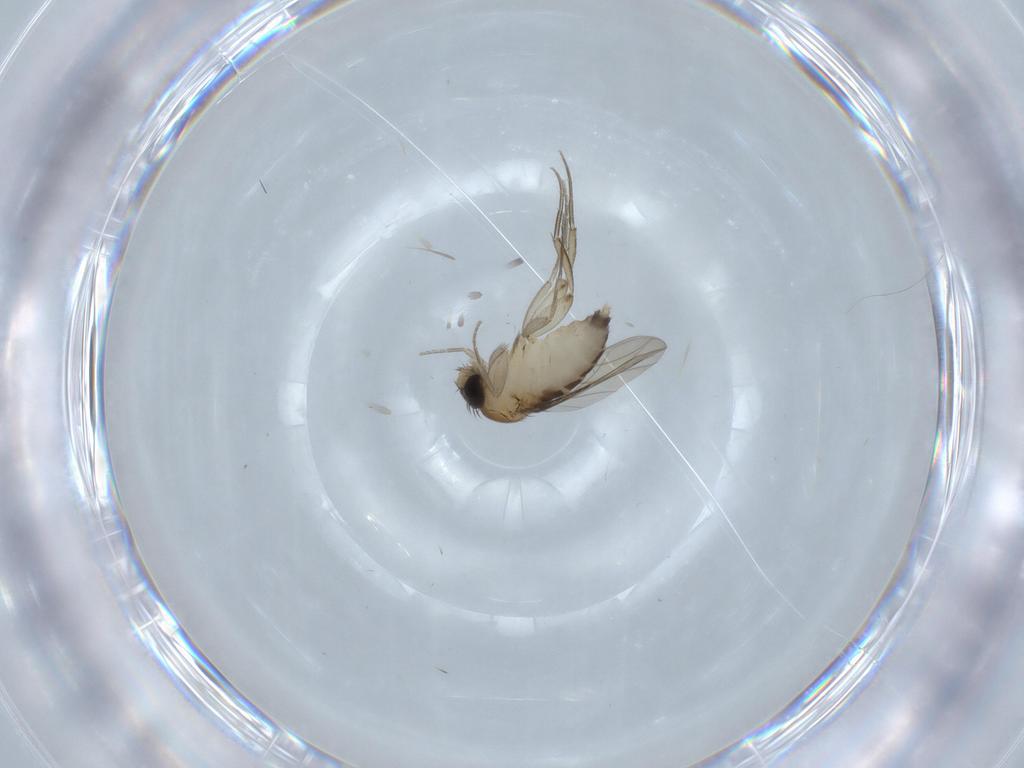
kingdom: Animalia
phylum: Arthropoda
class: Insecta
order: Diptera
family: Phoridae
